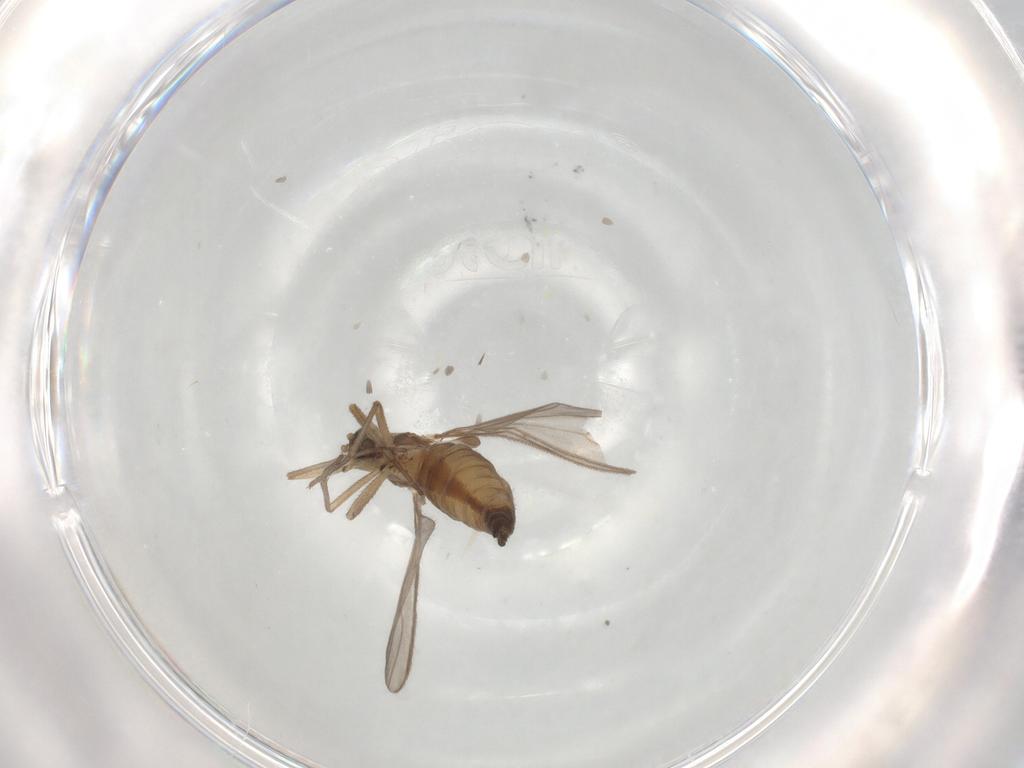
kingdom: Animalia
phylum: Arthropoda
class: Insecta
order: Diptera
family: Sciaridae
